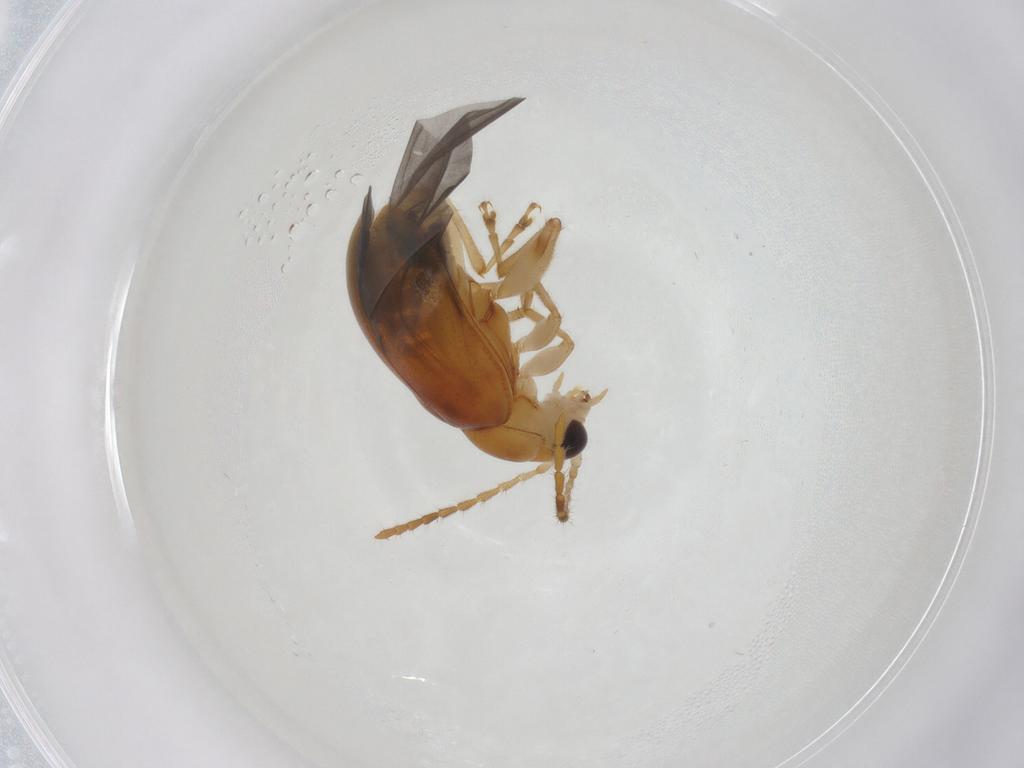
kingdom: Animalia
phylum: Arthropoda
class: Insecta
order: Coleoptera
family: Chrysomelidae
